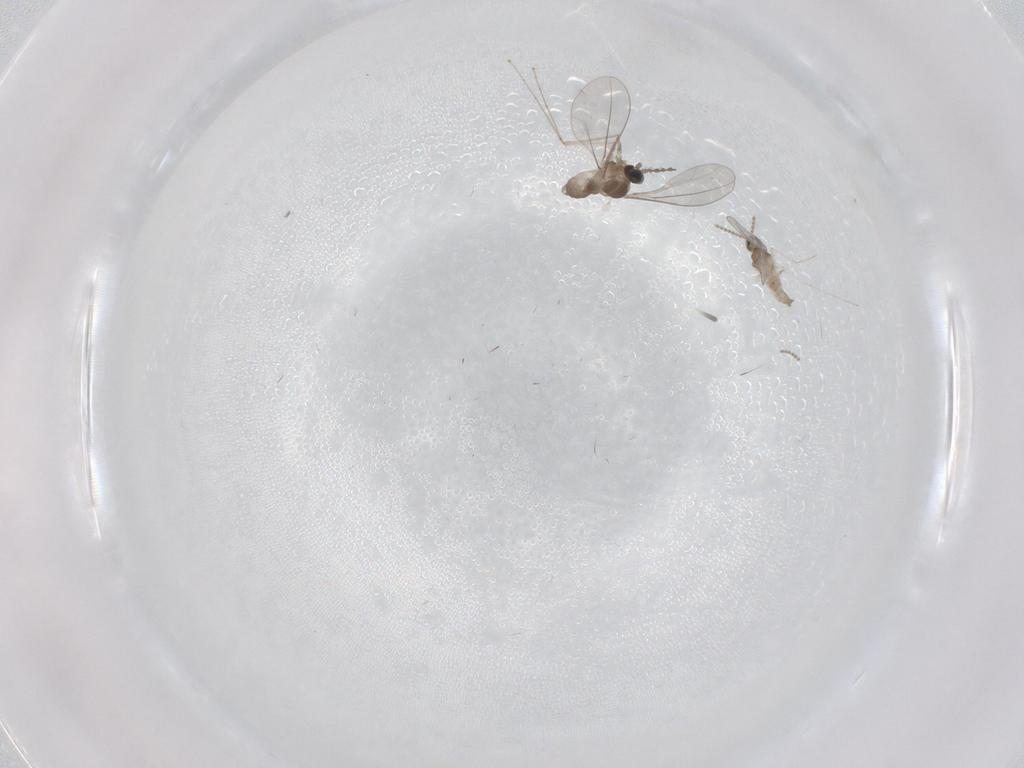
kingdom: Animalia
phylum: Arthropoda
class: Insecta
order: Diptera
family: Cecidomyiidae
